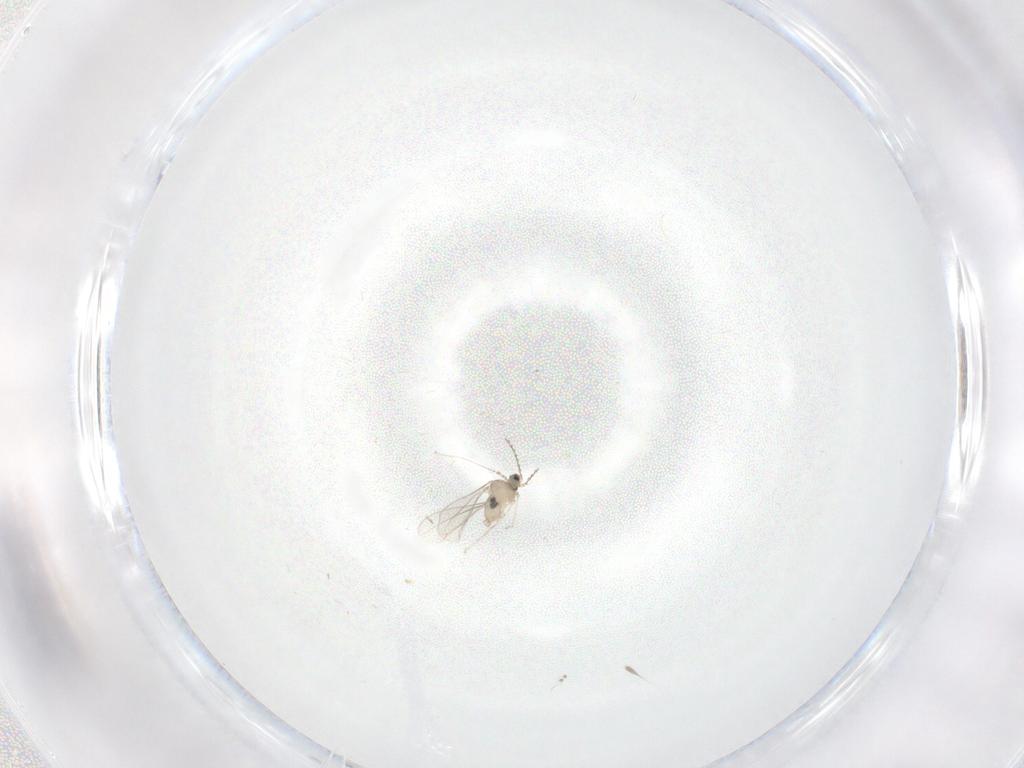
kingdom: Animalia
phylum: Arthropoda
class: Insecta
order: Diptera
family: Cecidomyiidae
